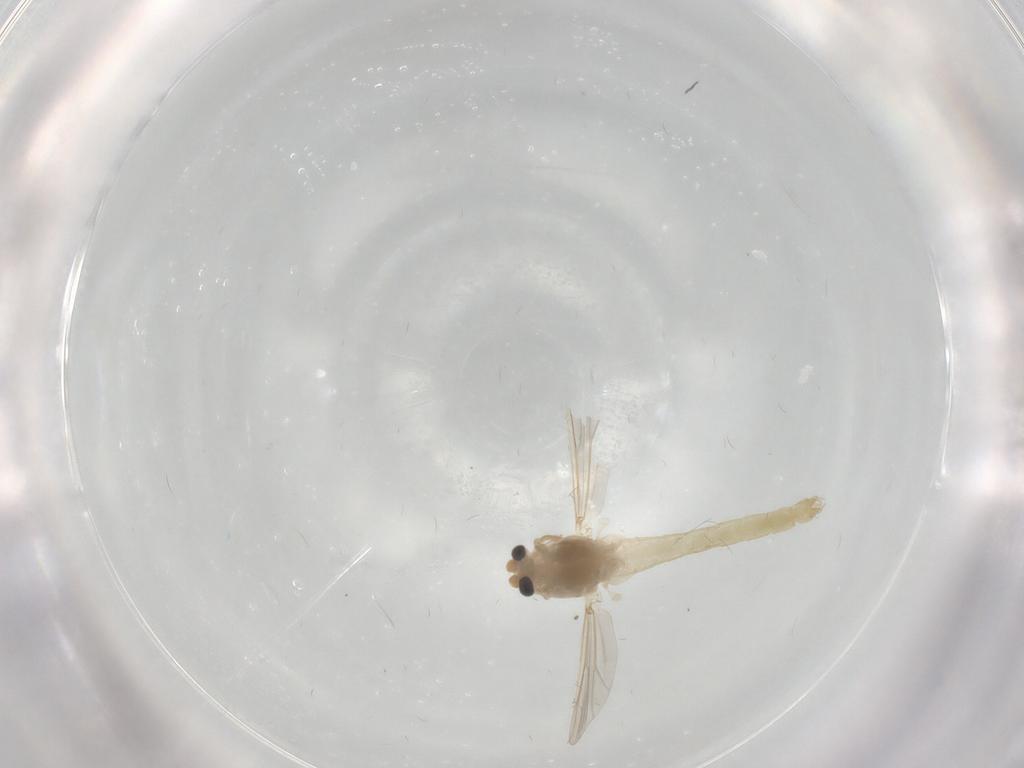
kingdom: Animalia
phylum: Arthropoda
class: Insecta
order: Diptera
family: Chironomidae
